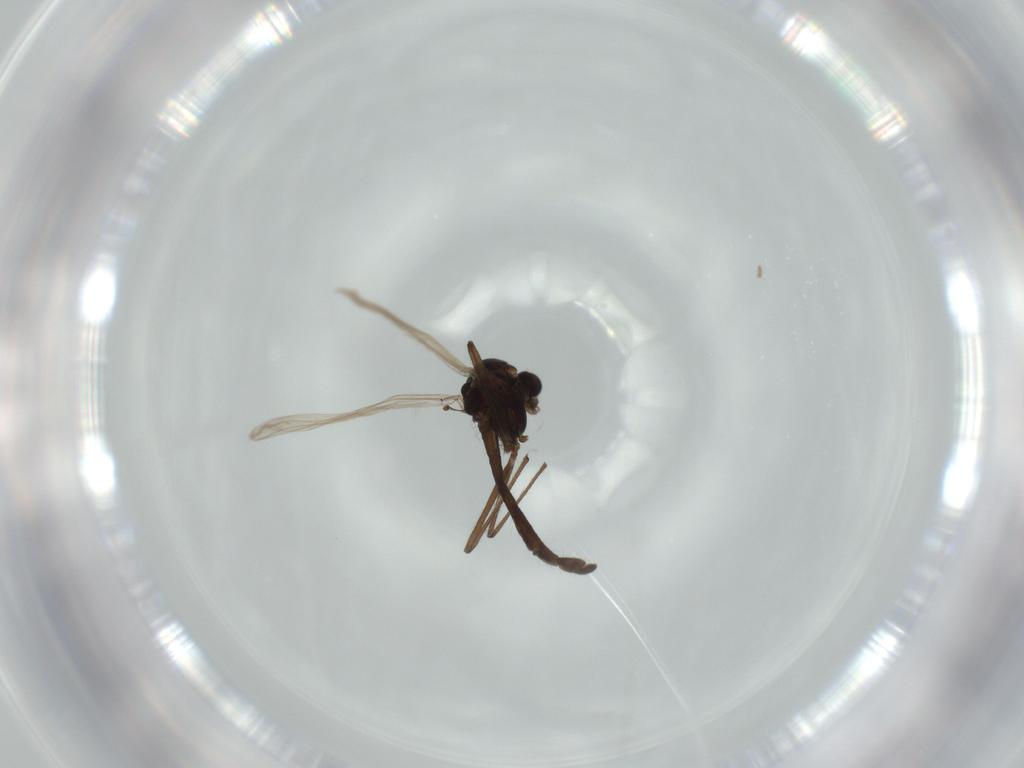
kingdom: Animalia
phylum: Arthropoda
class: Insecta
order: Diptera
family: Chironomidae
